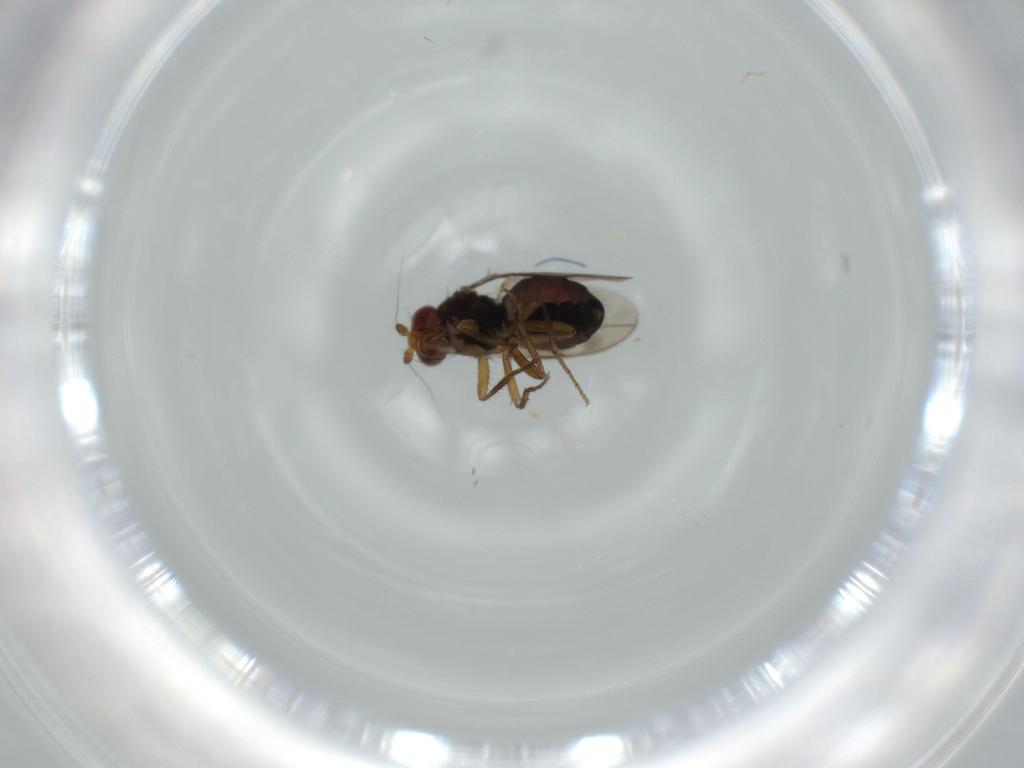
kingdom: Animalia
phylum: Arthropoda
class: Insecta
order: Diptera
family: Sphaeroceridae
